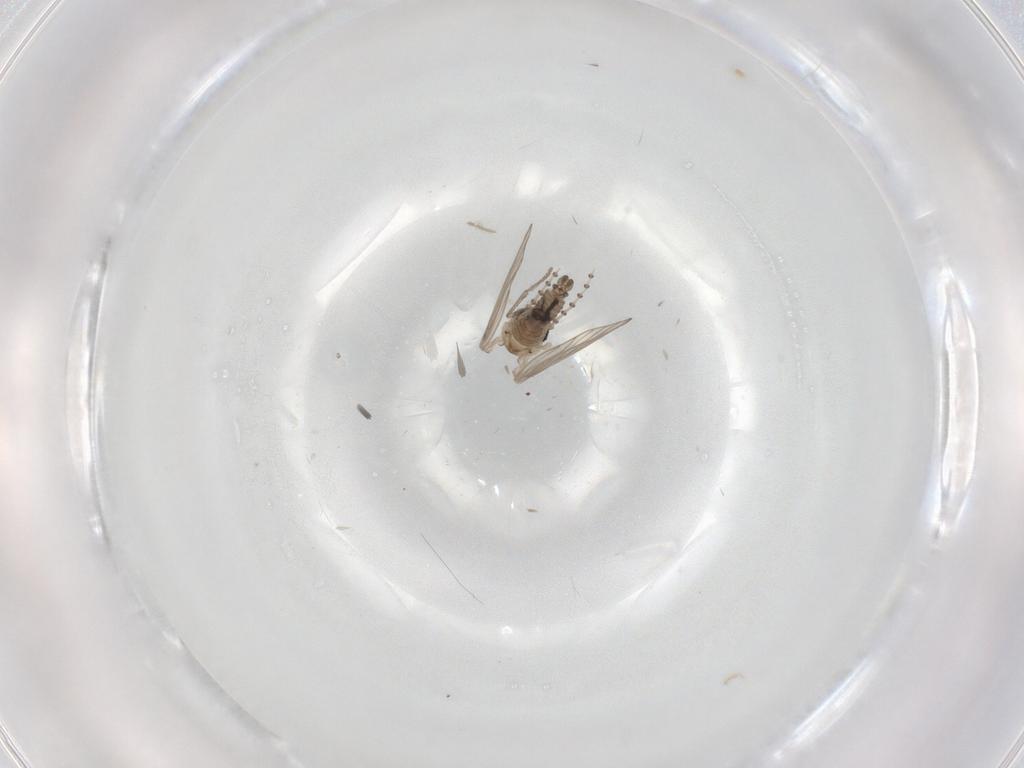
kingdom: Animalia
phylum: Arthropoda
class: Insecta
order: Diptera
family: Psychodidae
